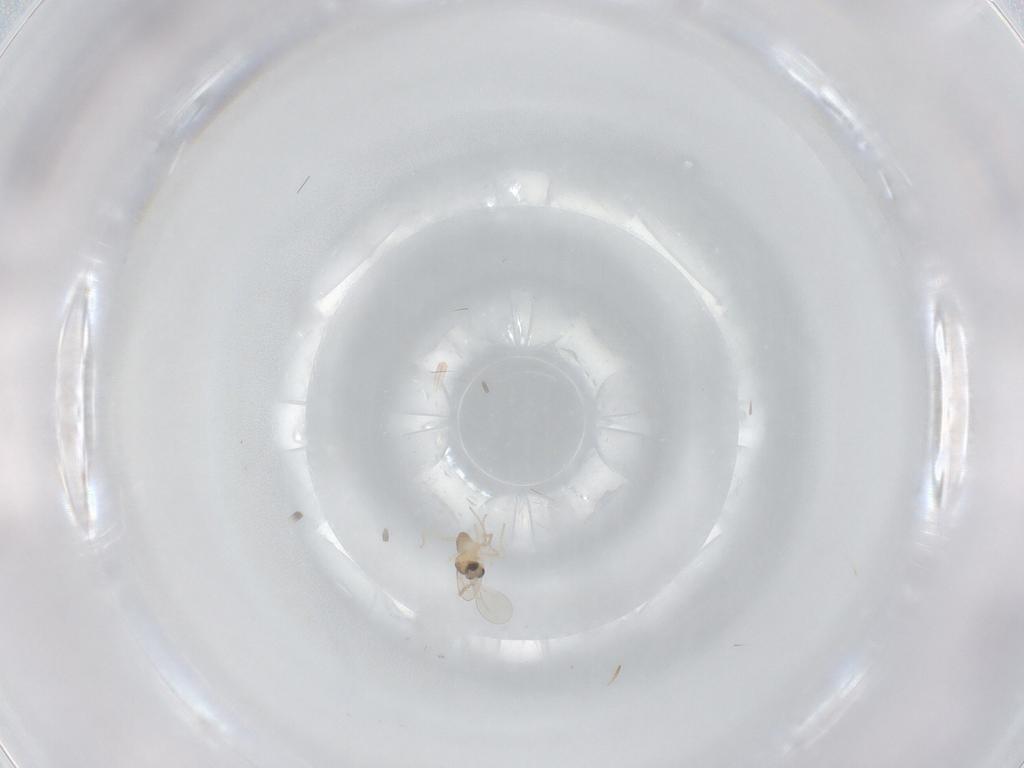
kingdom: Animalia
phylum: Arthropoda
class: Insecta
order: Diptera
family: Cecidomyiidae
